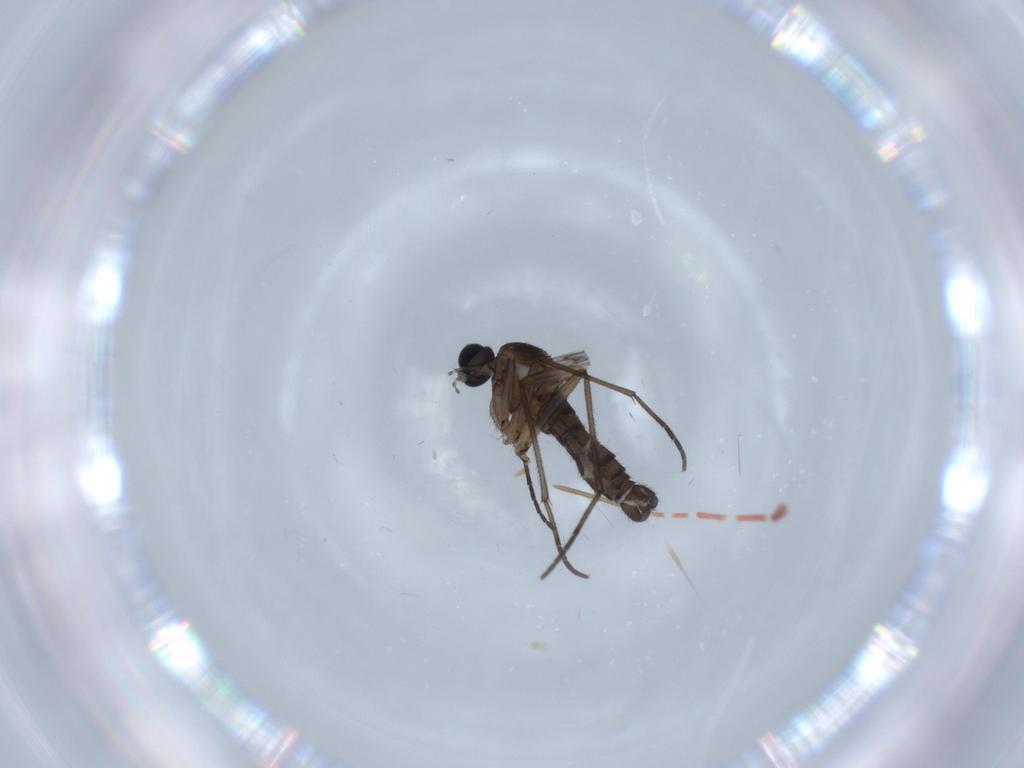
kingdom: Animalia
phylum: Arthropoda
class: Insecta
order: Diptera
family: Sciaridae
